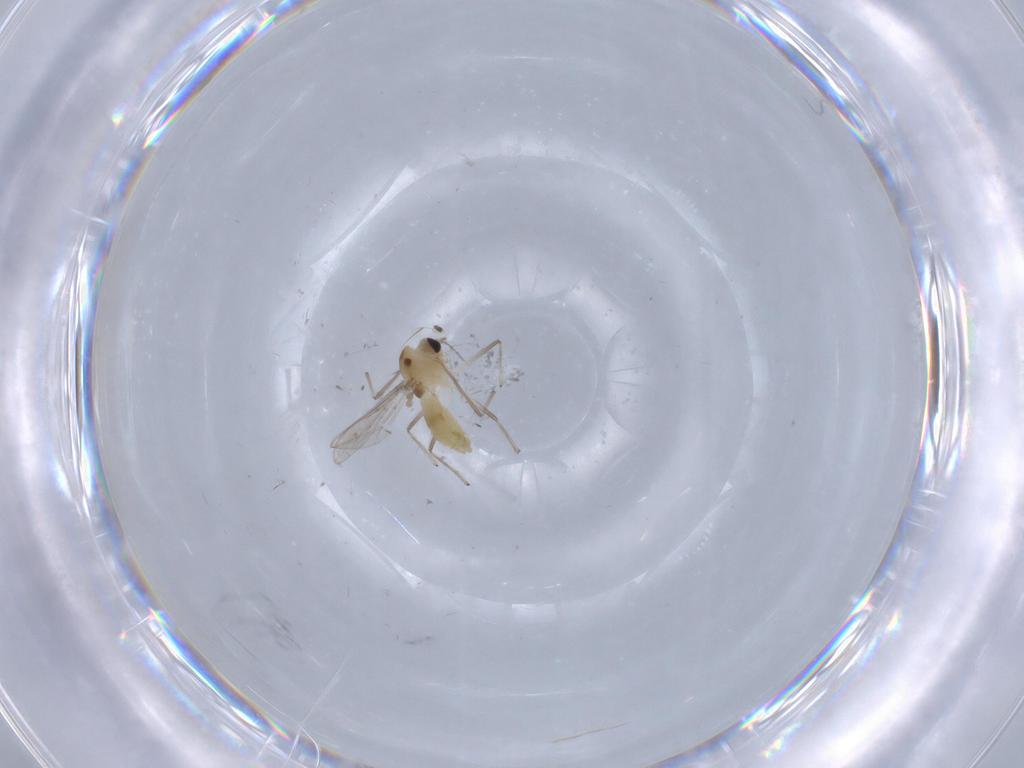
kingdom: Animalia
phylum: Arthropoda
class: Insecta
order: Diptera
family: Chironomidae
